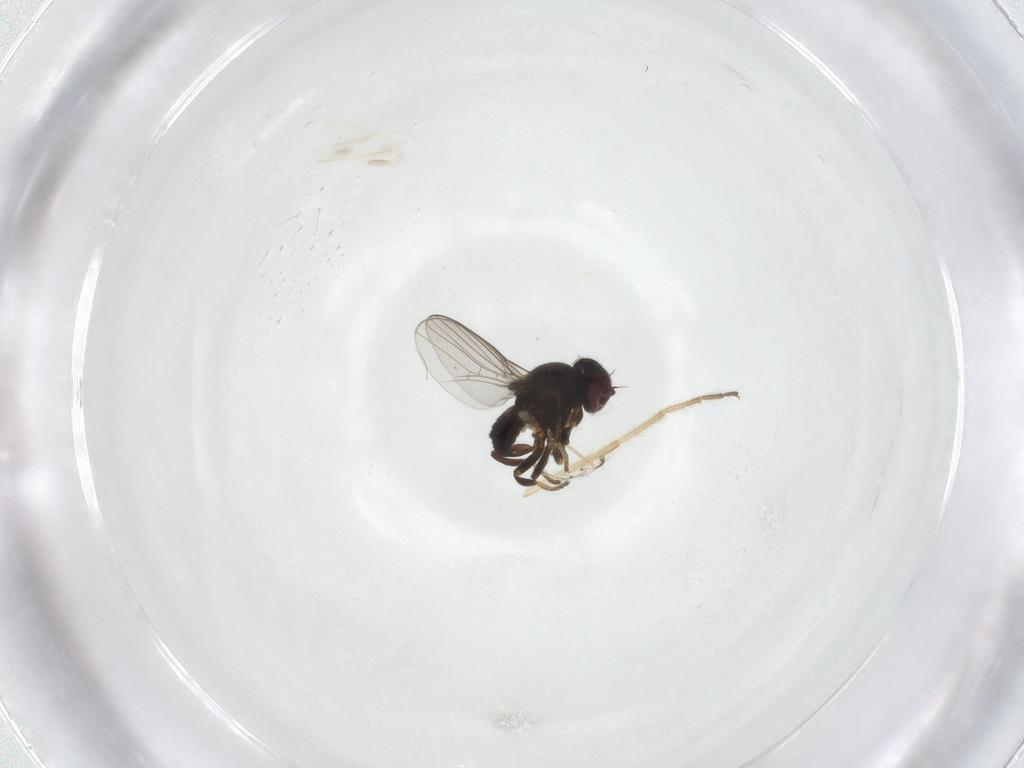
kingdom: Animalia
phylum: Arthropoda
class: Insecta
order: Diptera
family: Chloropidae
